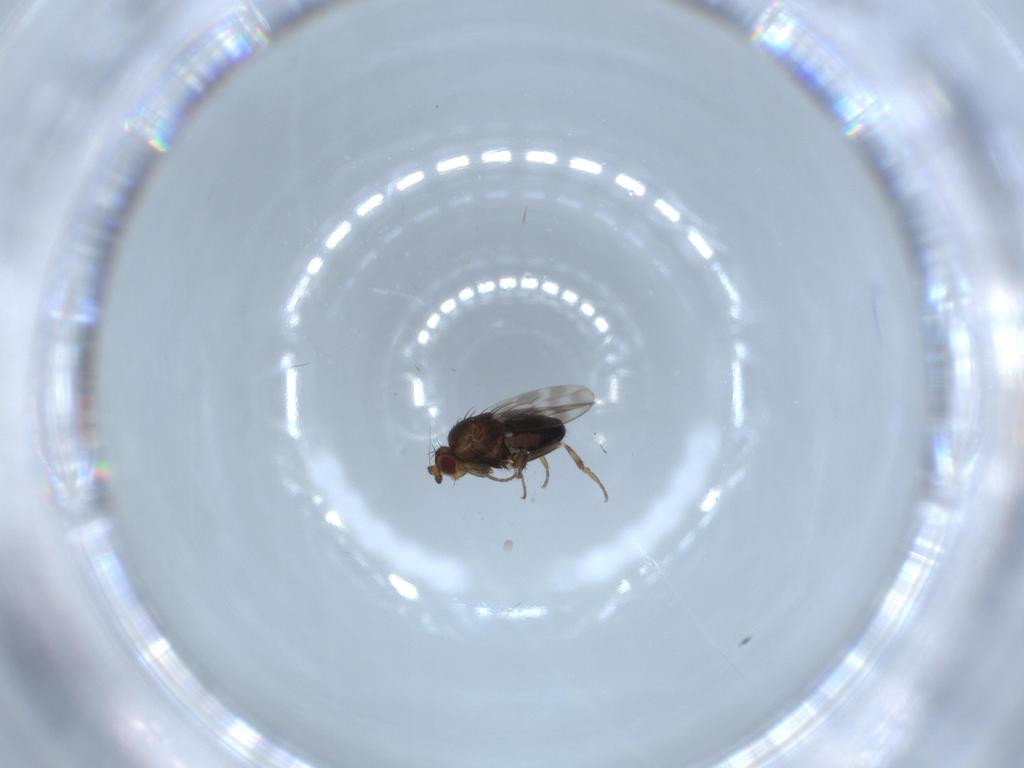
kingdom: Animalia
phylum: Arthropoda
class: Insecta
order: Diptera
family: Sphaeroceridae
